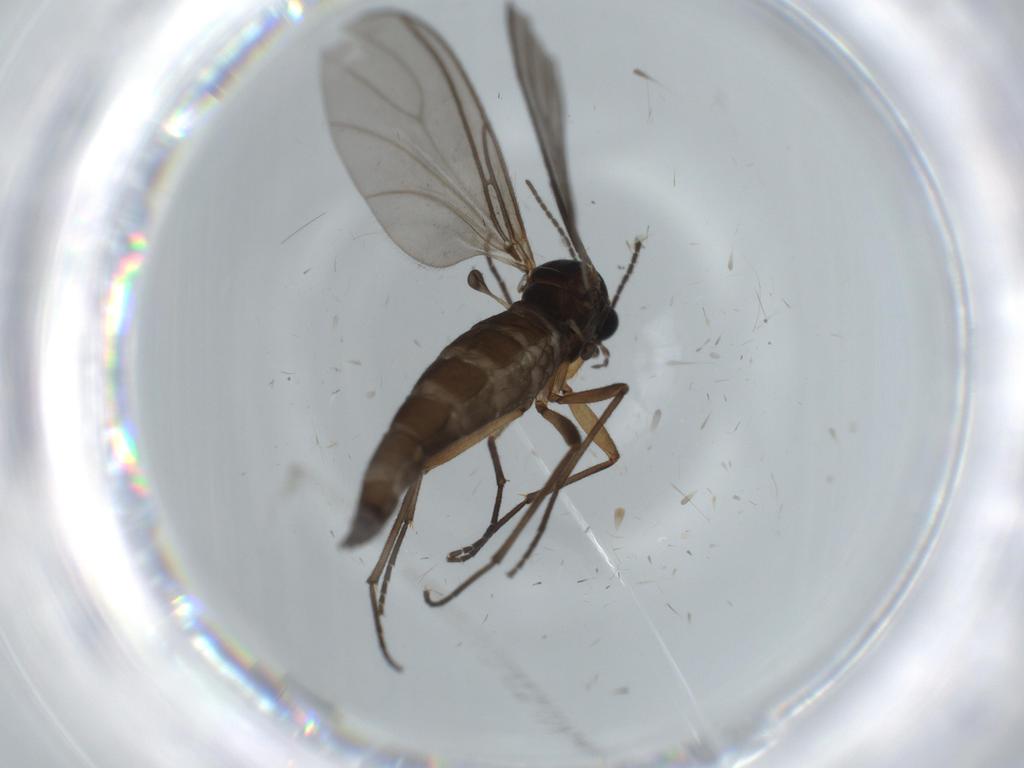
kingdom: Animalia
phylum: Arthropoda
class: Insecta
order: Diptera
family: Sciaridae
